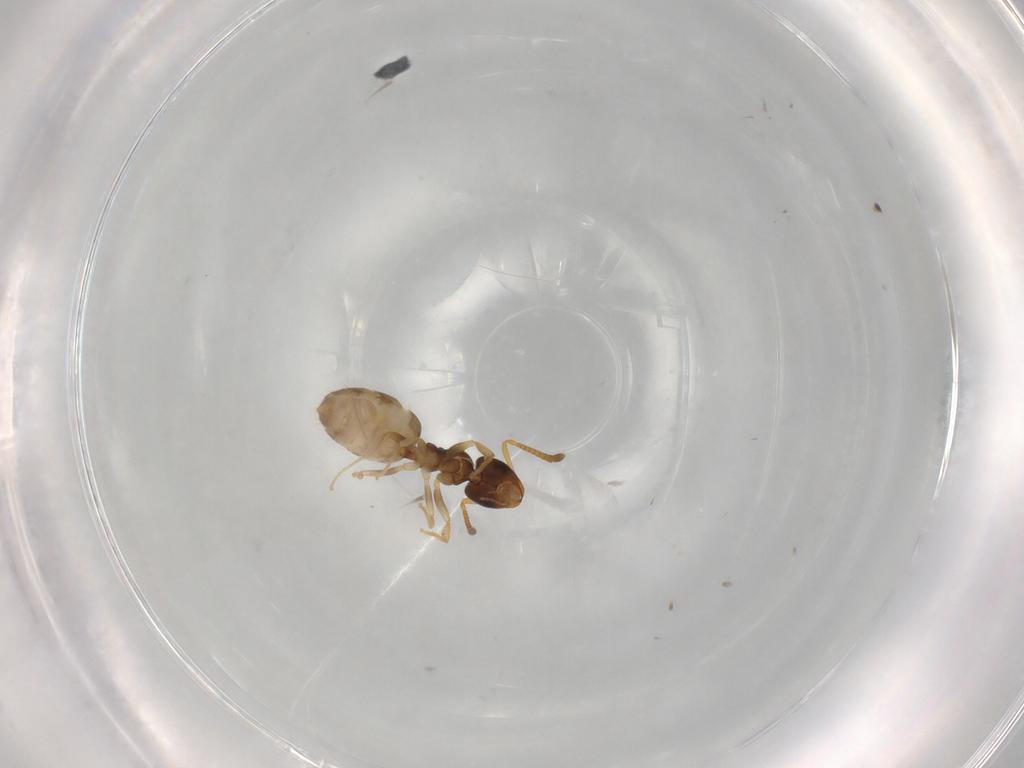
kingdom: Animalia
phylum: Arthropoda
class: Insecta
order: Hymenoptera
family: Formicidae
